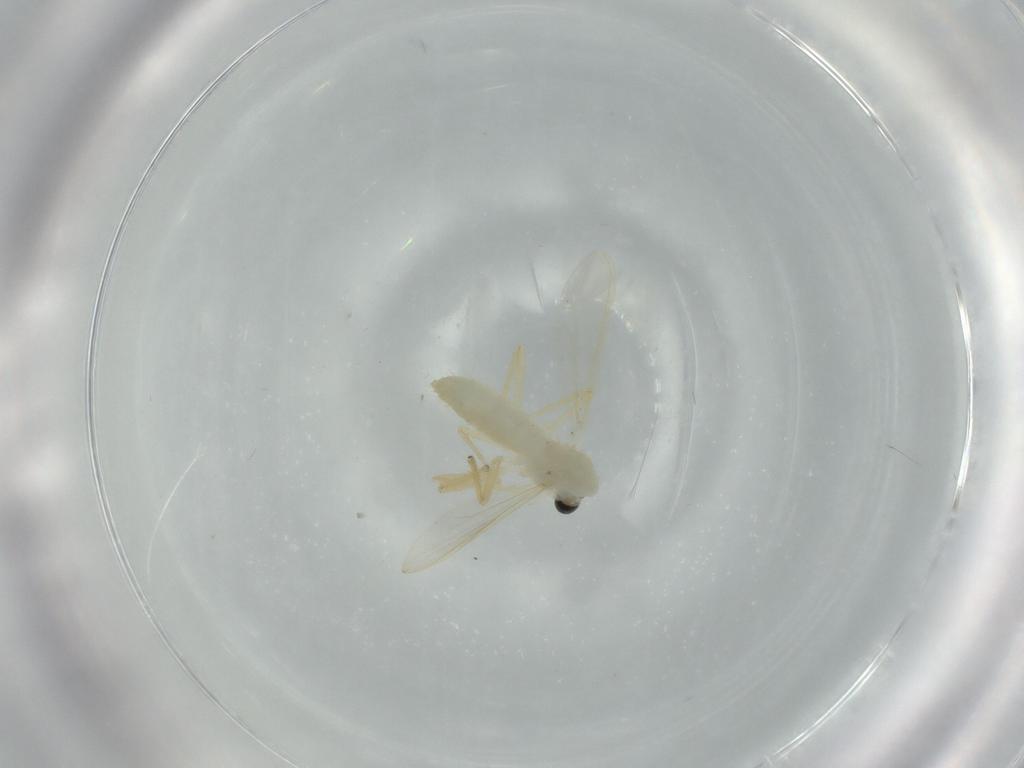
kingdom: Animalia
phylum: Arthropoda
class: Insecta
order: Diptera
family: Chironomidae
